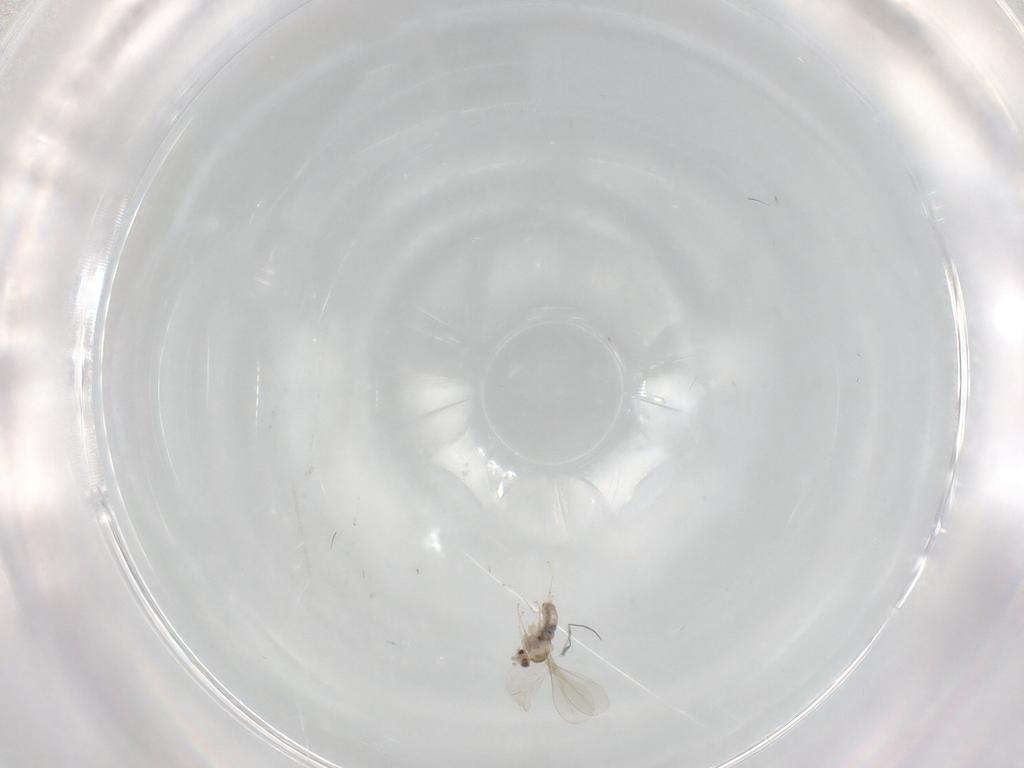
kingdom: Animalia
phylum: Arthropoda
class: Insecta
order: Diptera
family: Cecidomyiidae
